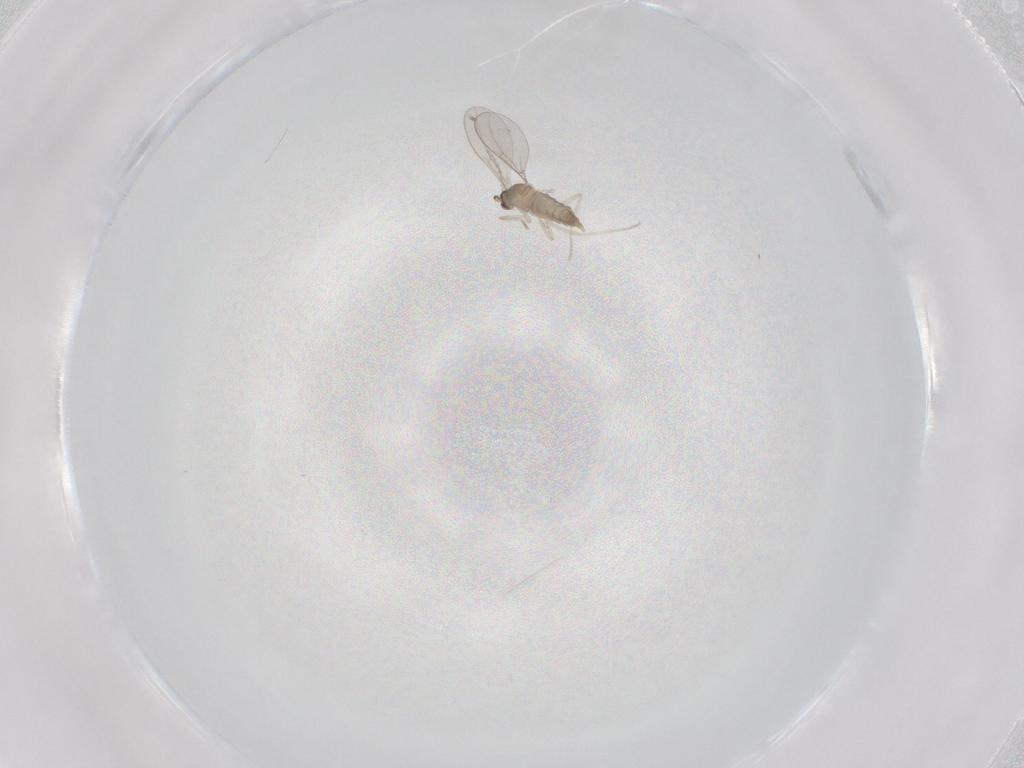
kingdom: Animalia
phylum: Arthropoda
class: Insecta
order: Diptera
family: Cecidomyiidae
